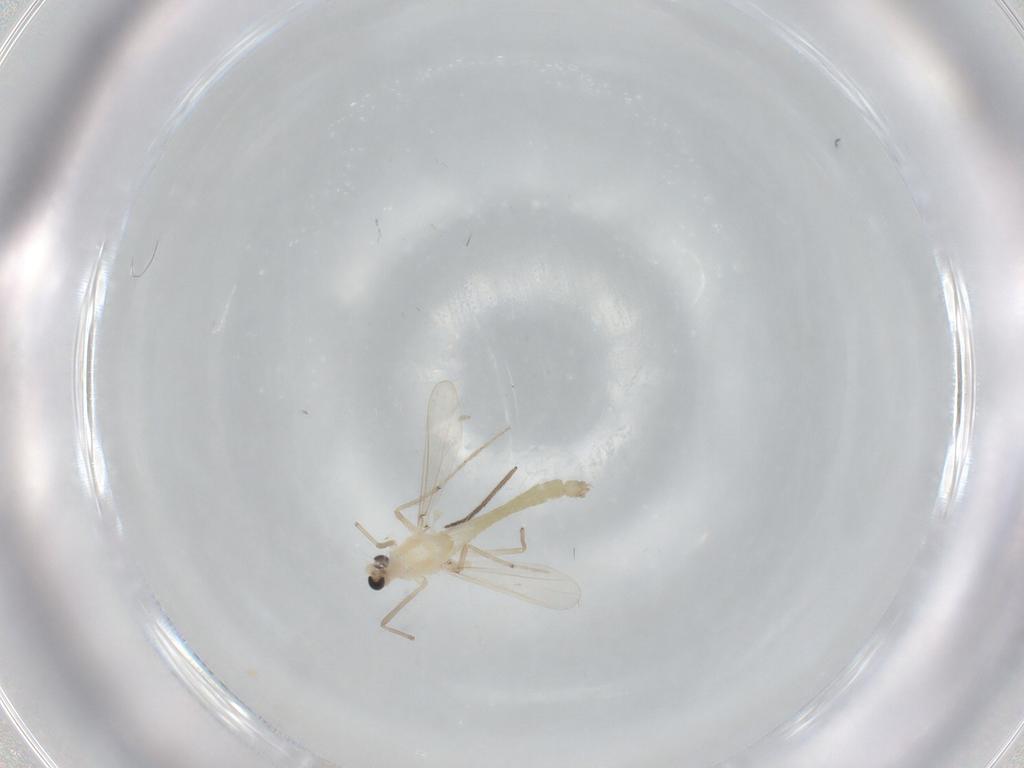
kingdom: Animalia
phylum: Arthropoda
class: Insecta
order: Diptera
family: Chironomidae
